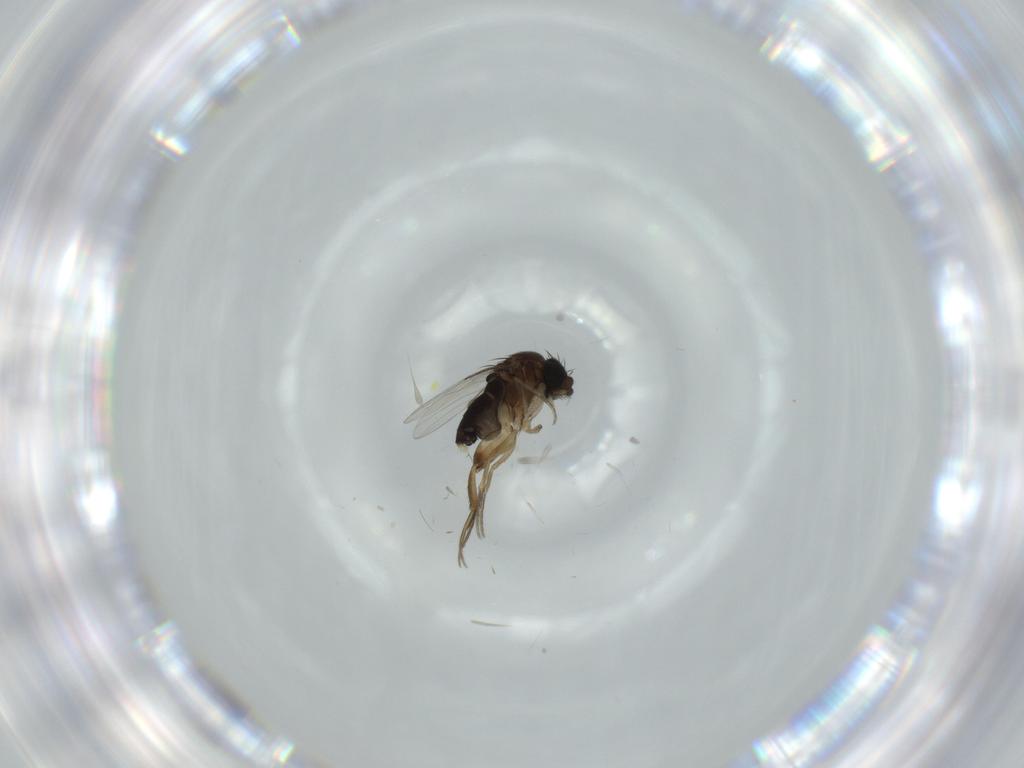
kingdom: Animalia
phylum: Arthropoda
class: Insecta
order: Diptera
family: Phoridae
